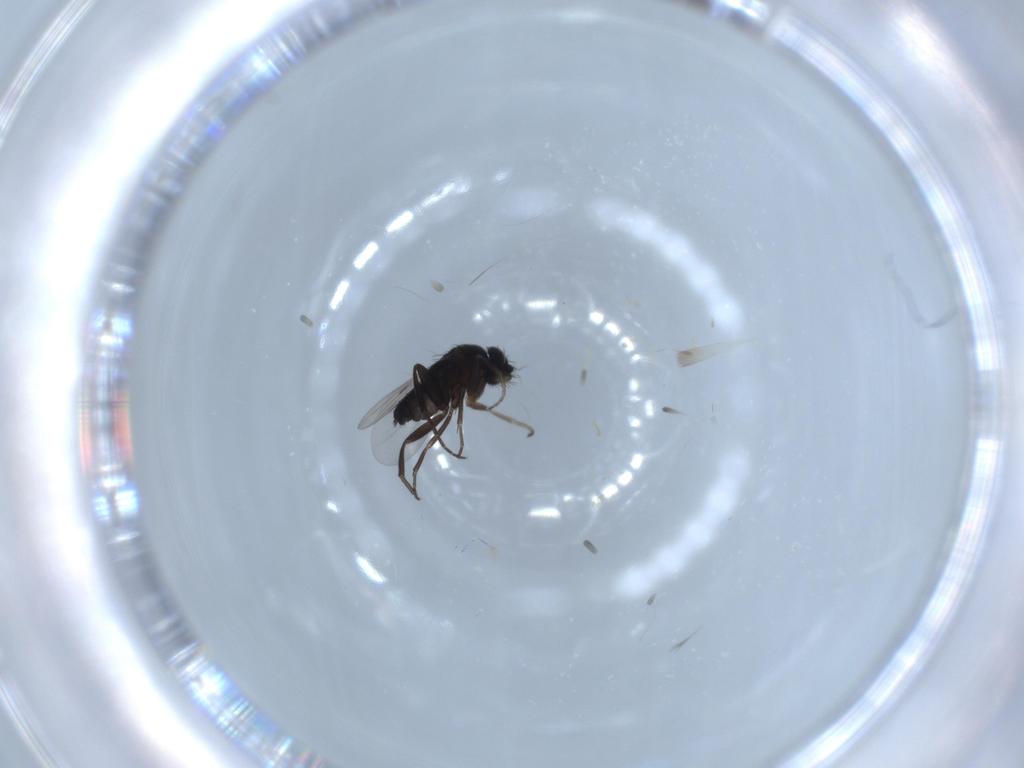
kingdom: Animalia
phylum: Arthropoda
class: Insecta
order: Diptera
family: Phoridae
